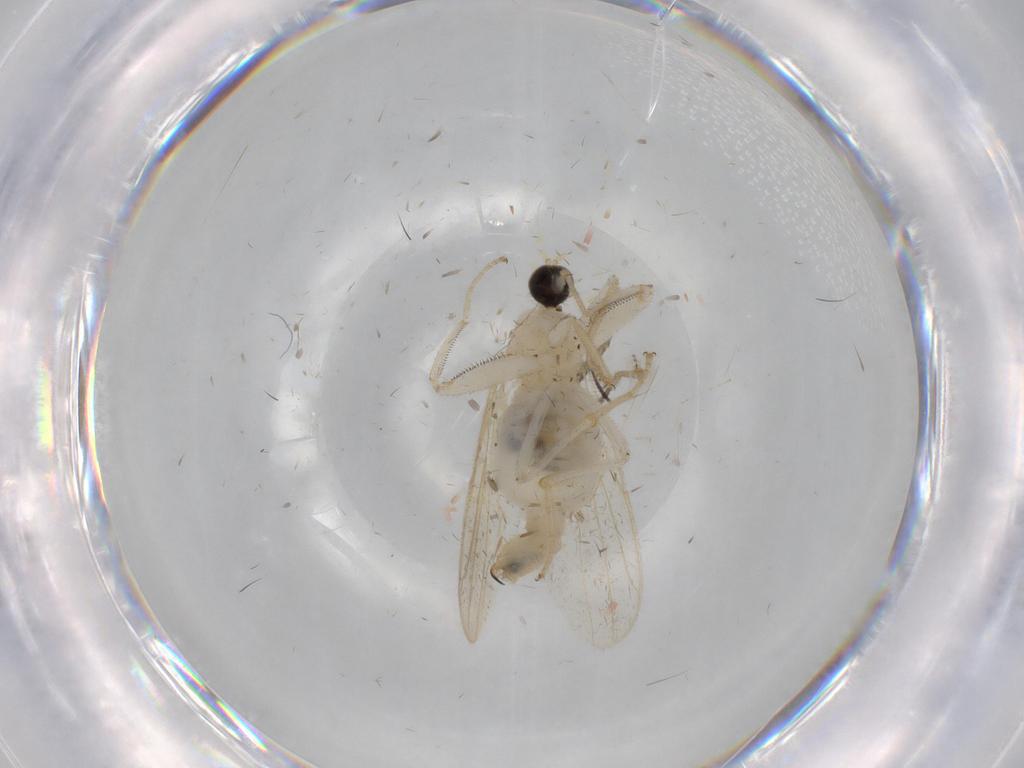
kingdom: Animalia
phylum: Arthropoda
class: Insecta
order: Diptera
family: Hybotidae
